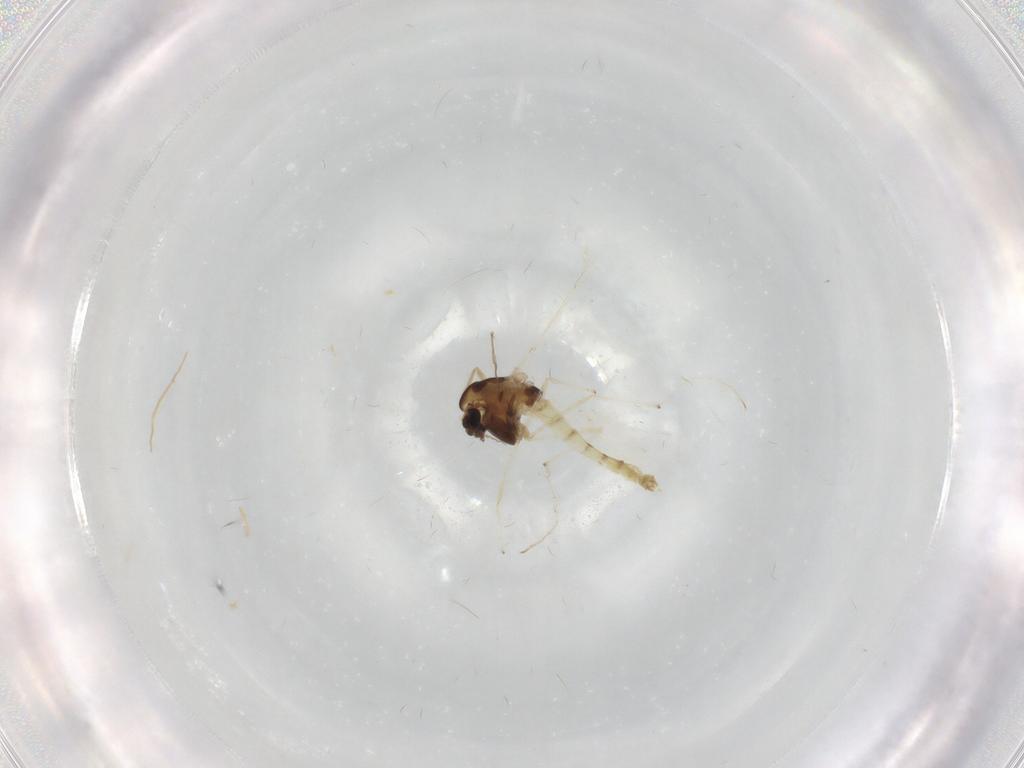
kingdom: Animalia
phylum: Arthropoda
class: Insecta
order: Diptera
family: Chironomidae
